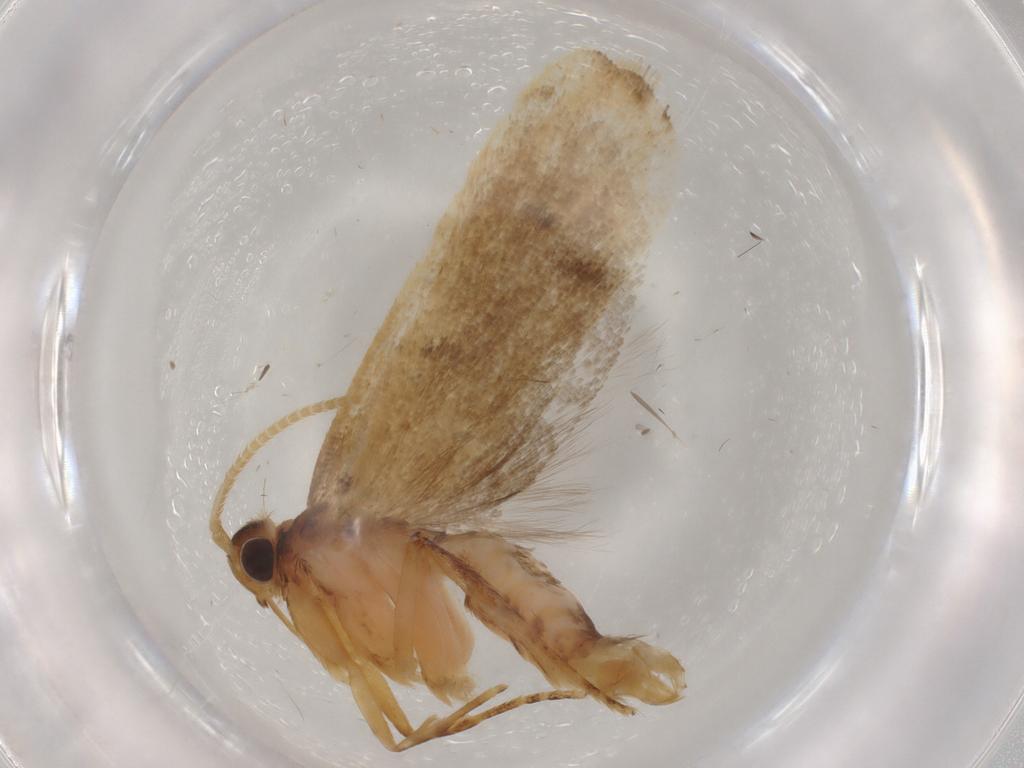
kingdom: Animalia
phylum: Arthropoda
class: Insecta
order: Lepidoptera
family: Lecithoceridae
